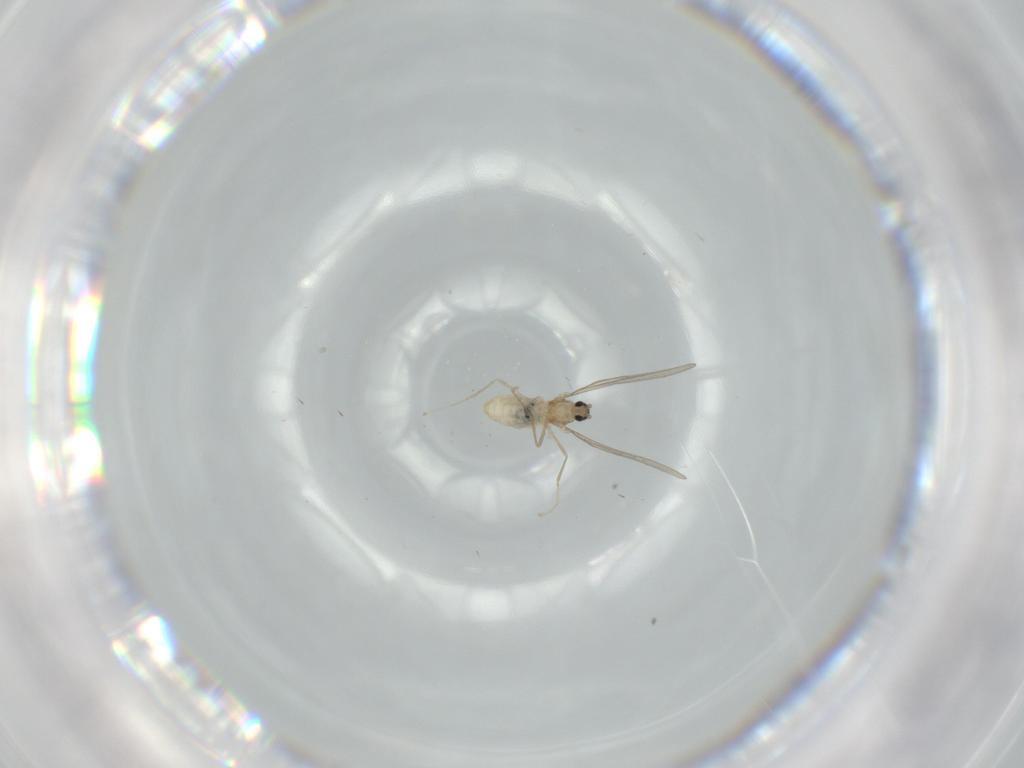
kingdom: Animalia
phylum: Arthropoda
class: Insecta
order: Diptera
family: Cecidomyiidae
